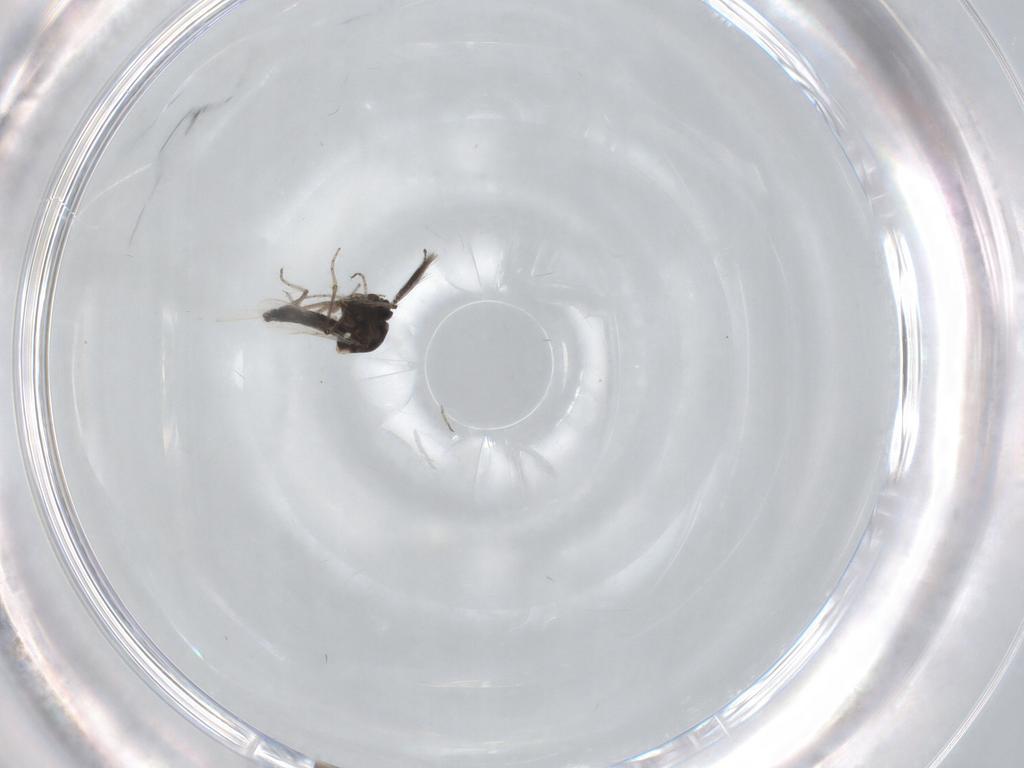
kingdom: Animalia
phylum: Arthropoda
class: Insecta
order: Diptera
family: Ceratopogonidae
